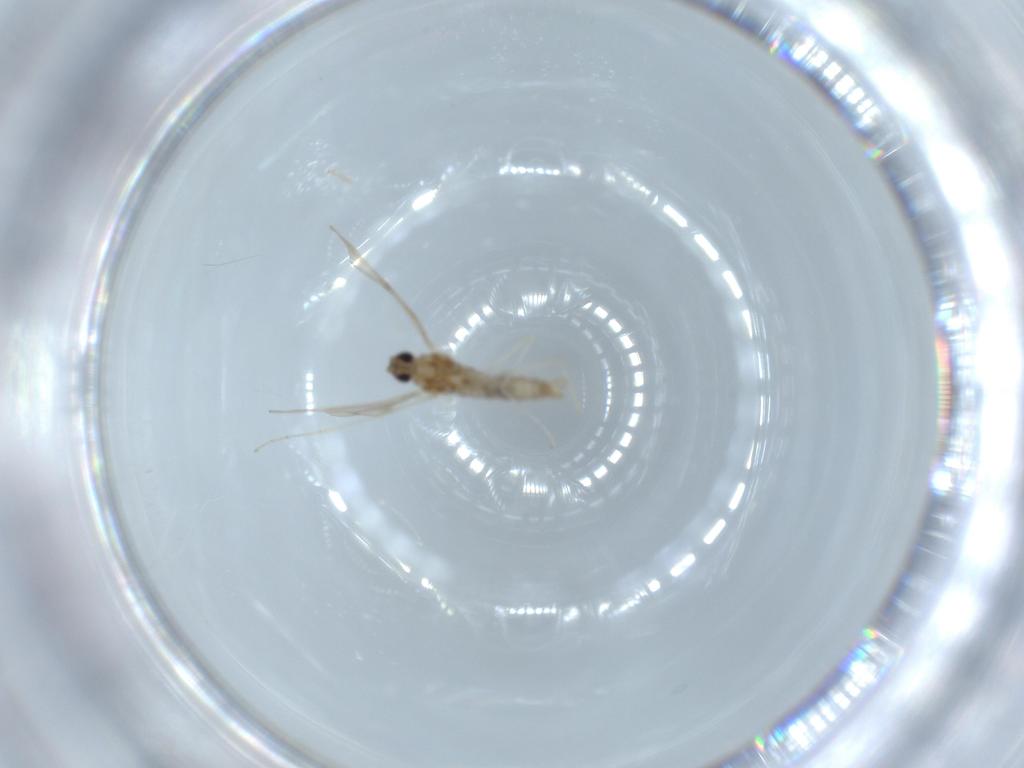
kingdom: Animalia
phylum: Arthropoda
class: Insecta
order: Diptera
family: Cecidomyiidae
